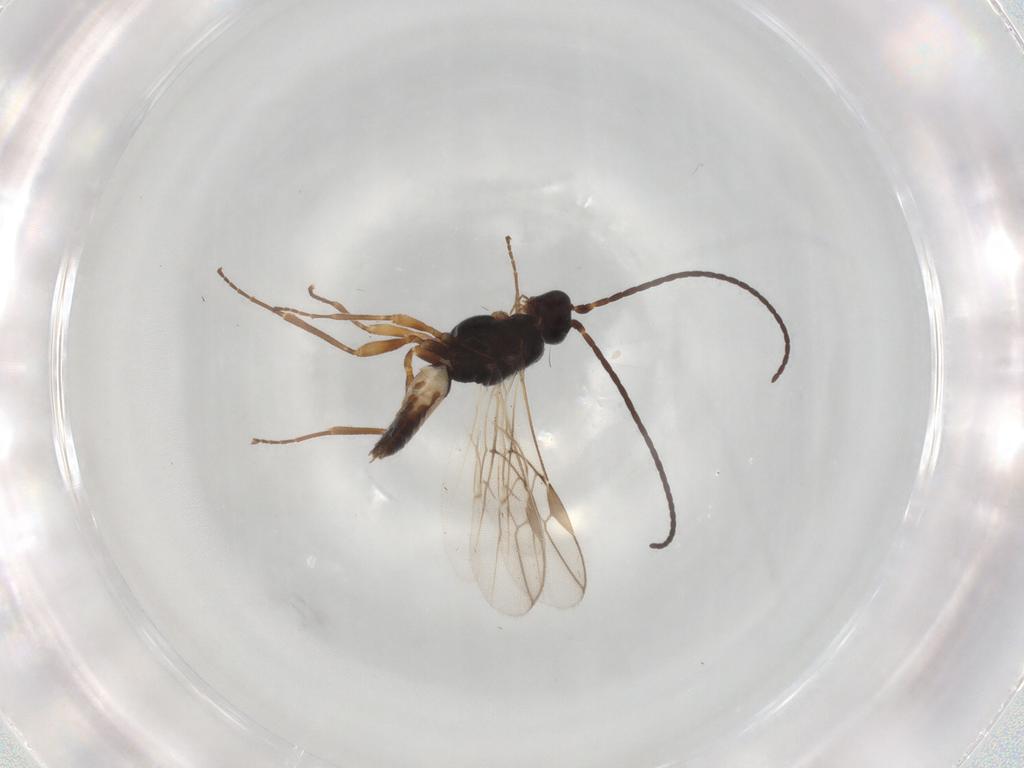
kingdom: Animalia
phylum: Arthropoda
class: Insecta
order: Hymenoptera
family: Braconidae
